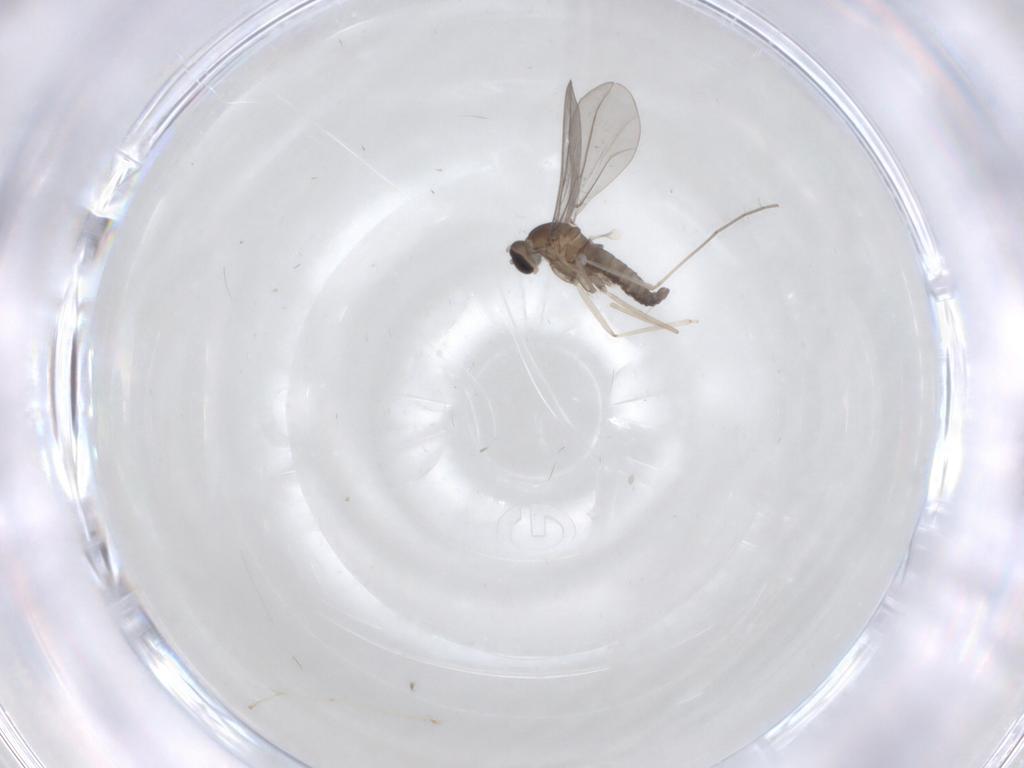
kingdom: Animalia
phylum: Arthropoda
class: Insecta
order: Diptera
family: Cecidomyiidae
